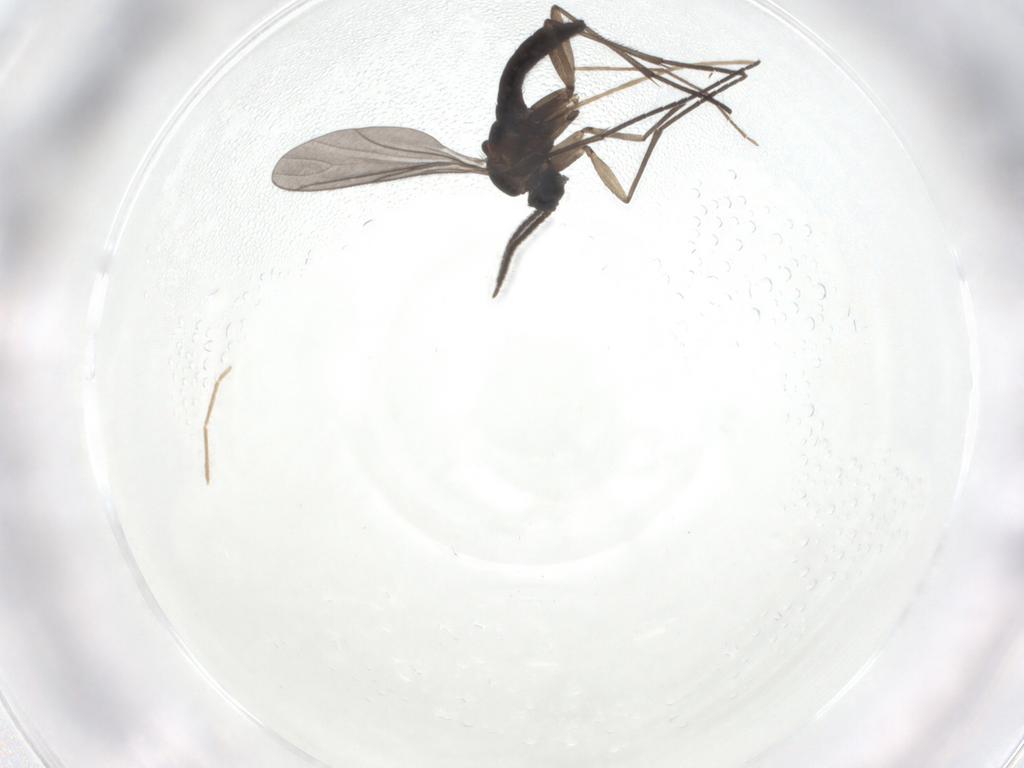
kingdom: Animalia
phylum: Arthropoda
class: Insecta
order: Diptera
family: Sciaridae
